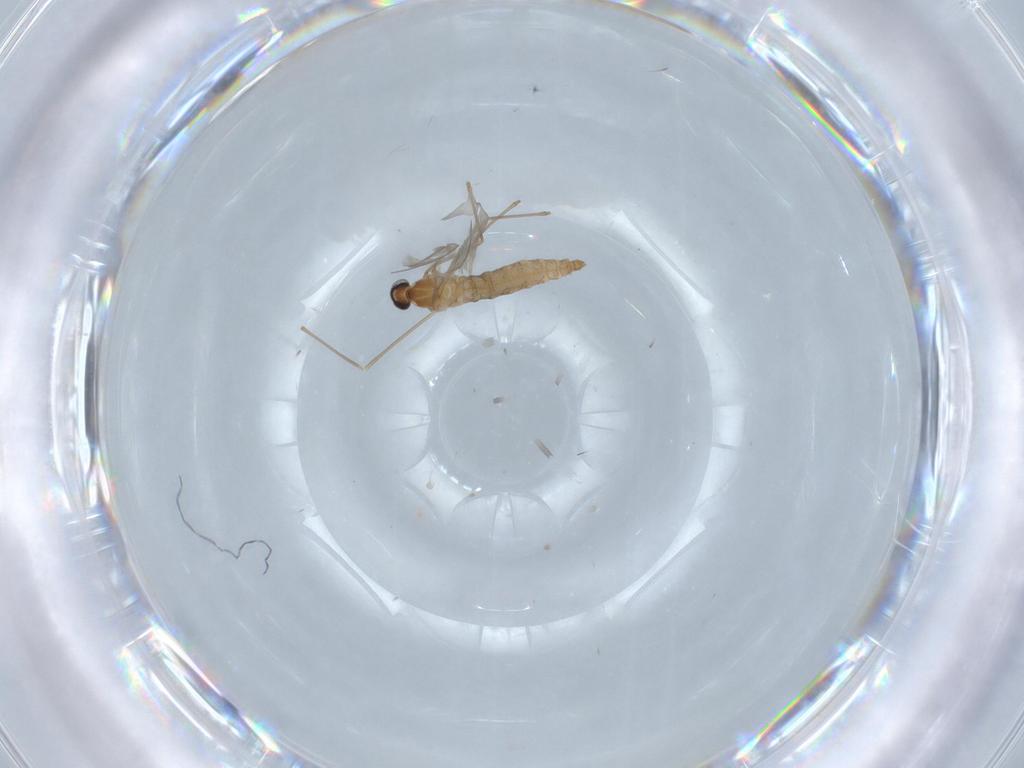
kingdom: Animalia
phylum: Arthropoda
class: Insecta
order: Diptera
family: Cecidomyiidae
